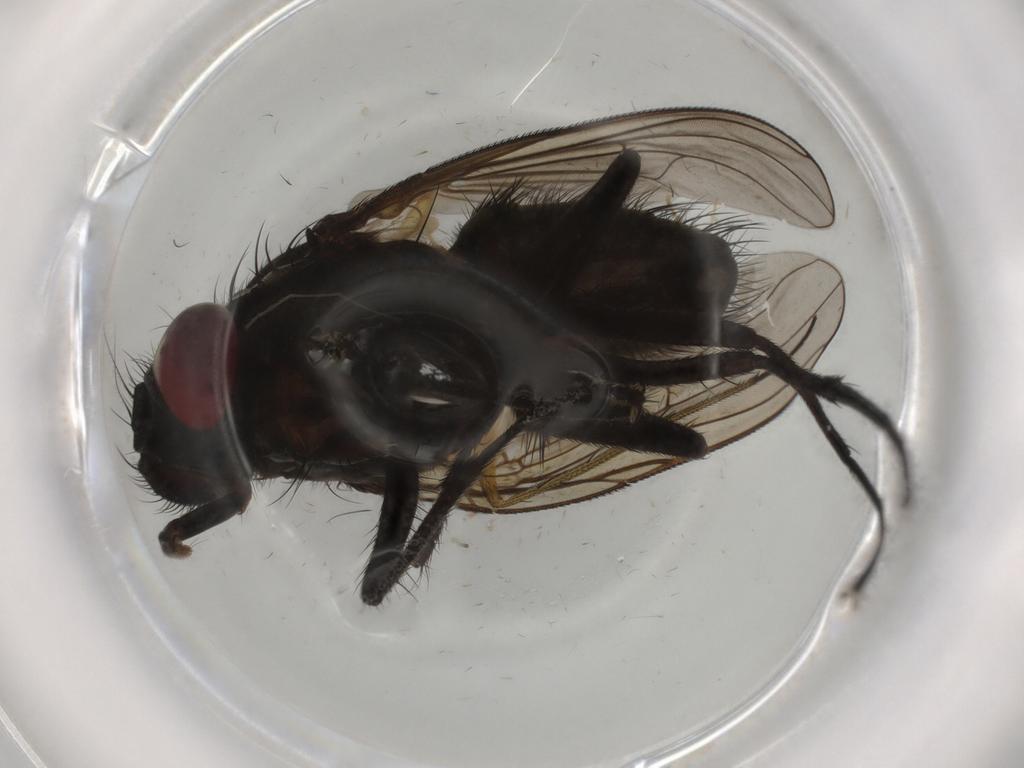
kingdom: Animalia
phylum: Arthropoda
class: Insecta
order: Diptera
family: Muscidae
